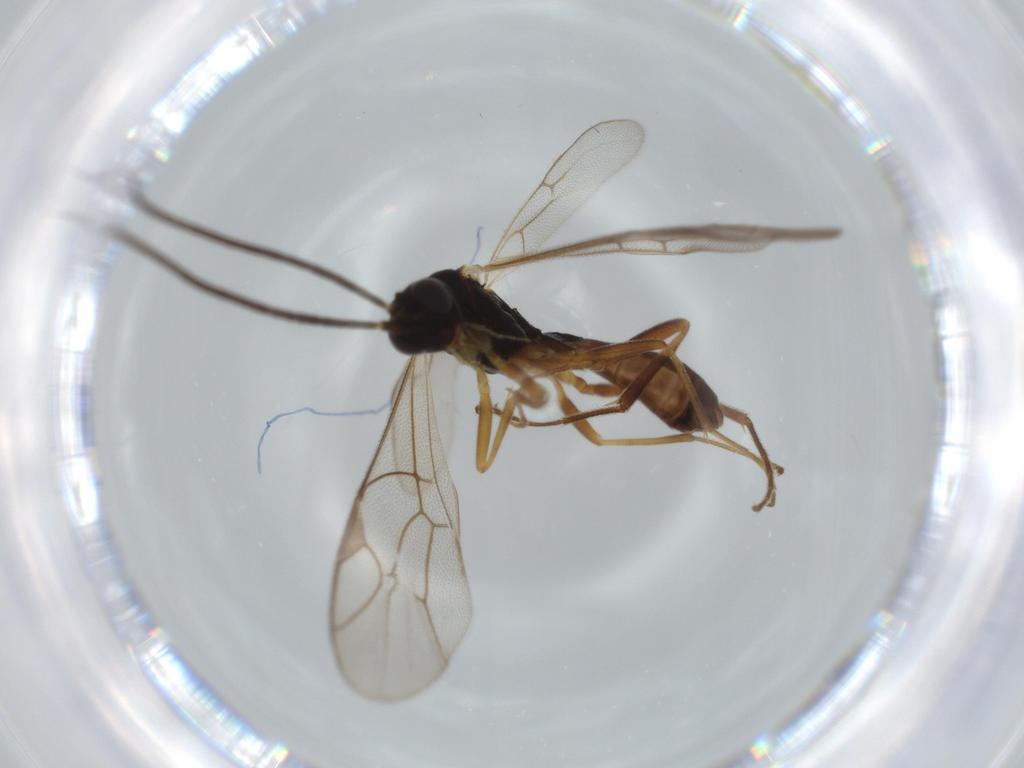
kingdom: Animalia
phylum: Arthropoda
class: Insecta
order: Hymenoptera
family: Ichneumonidae
